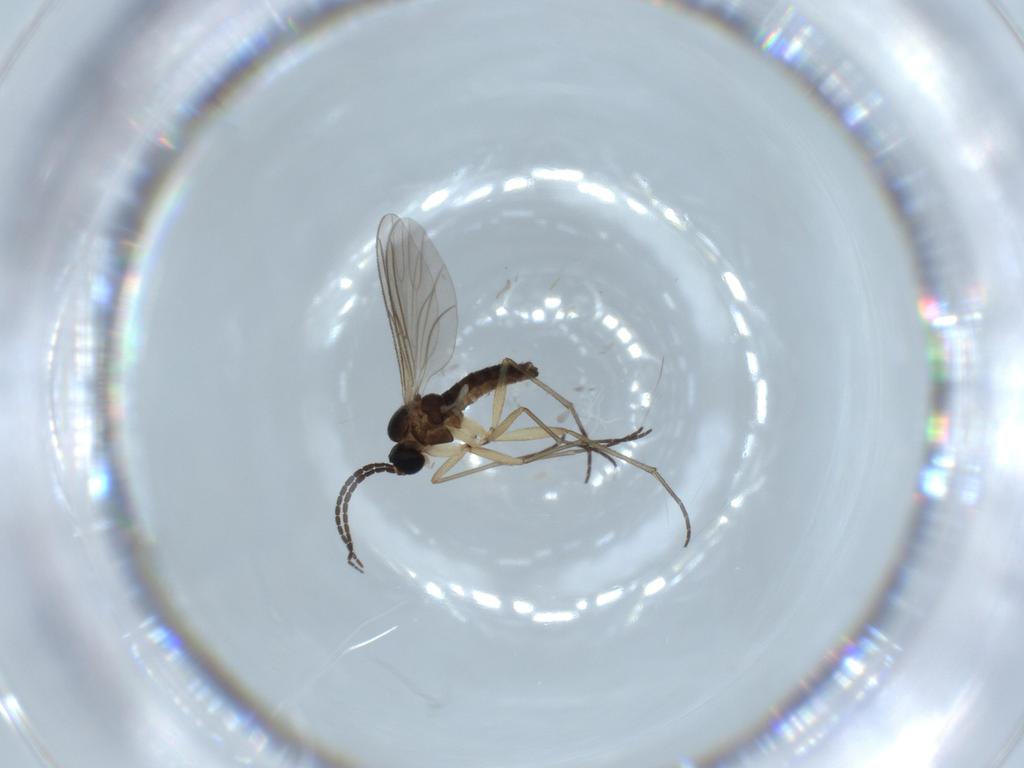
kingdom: Animalia
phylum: Arthropoda
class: Insecta
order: Diptera
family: Sciaridae
